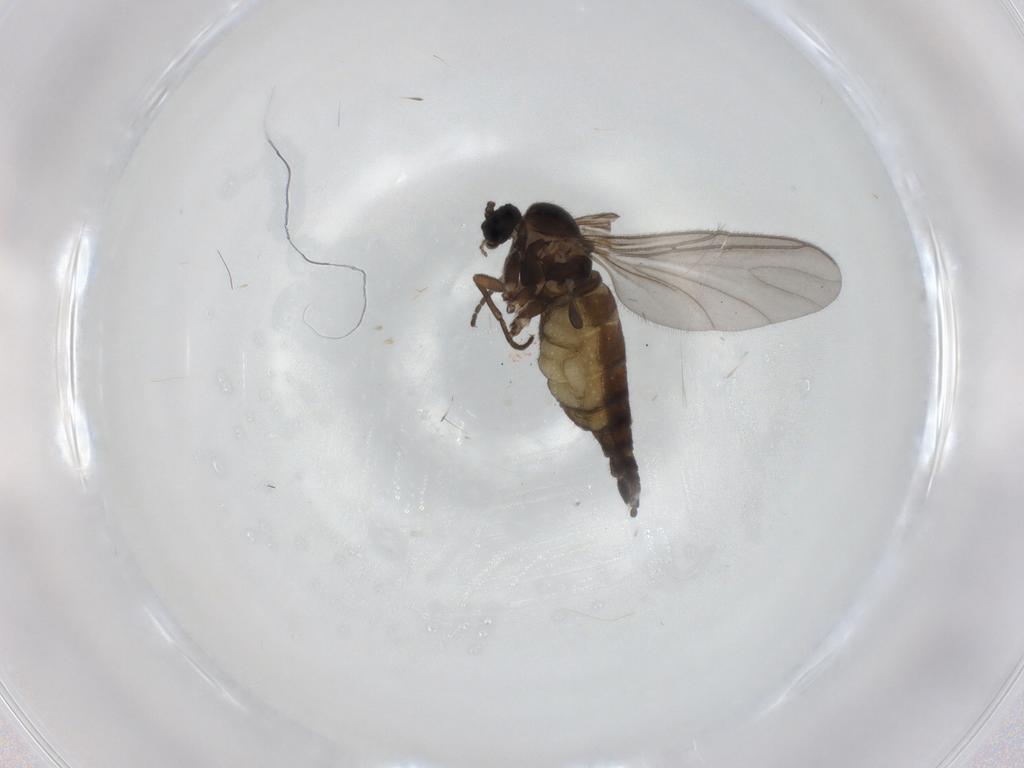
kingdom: Animalia
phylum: Arthropoda
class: Insecta
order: Diptera
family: Sciaridae
